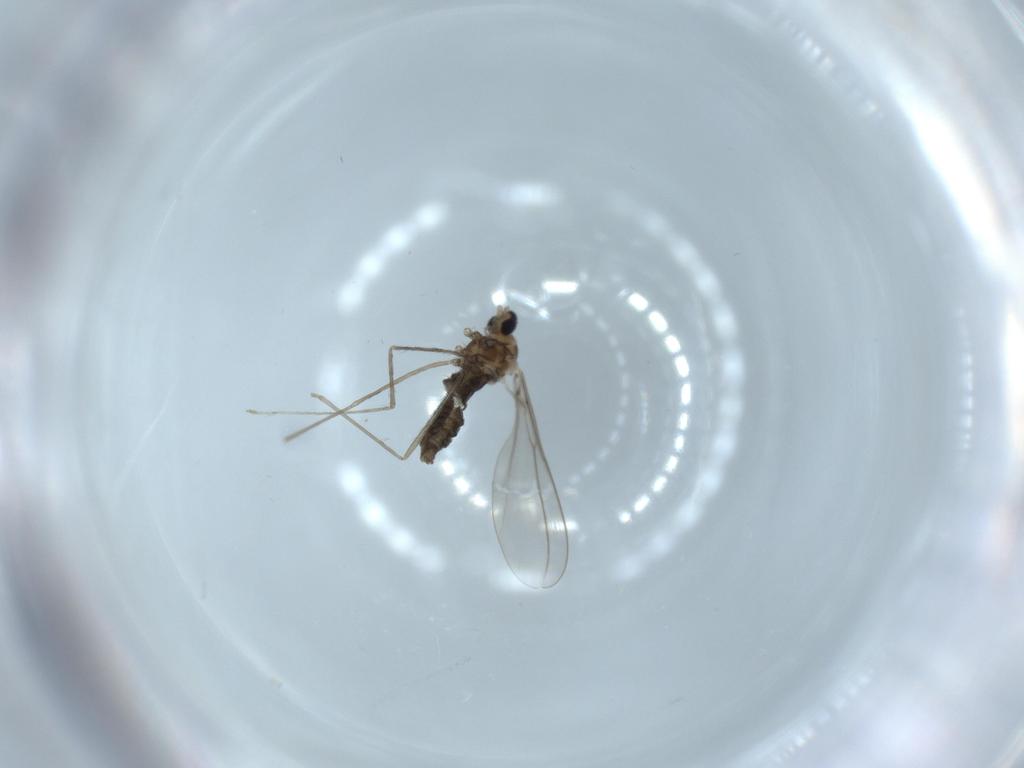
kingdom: Animalia
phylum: Arthropoda
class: Insecta
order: Diptera
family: Cecidomyiidae
